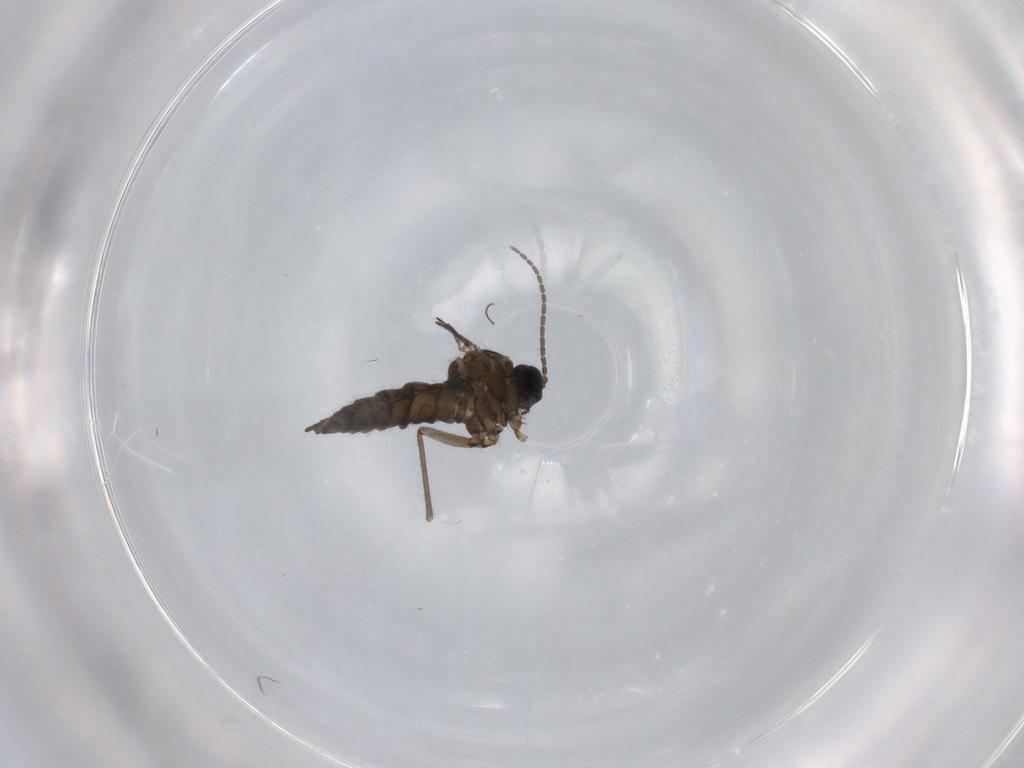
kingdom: Animalia
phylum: Arthropoda
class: Insecta
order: Diptera
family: Sciaridae
